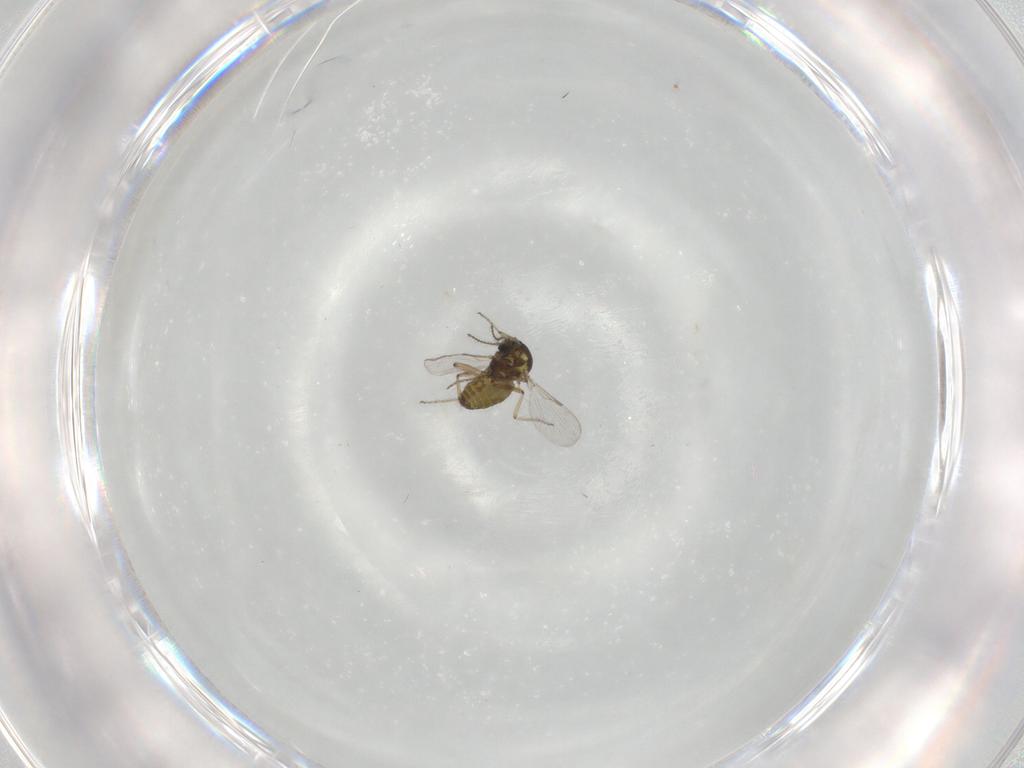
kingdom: Animalia
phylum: Arthropoda
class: Insecta
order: Diptera
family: Ceratopogonidae
